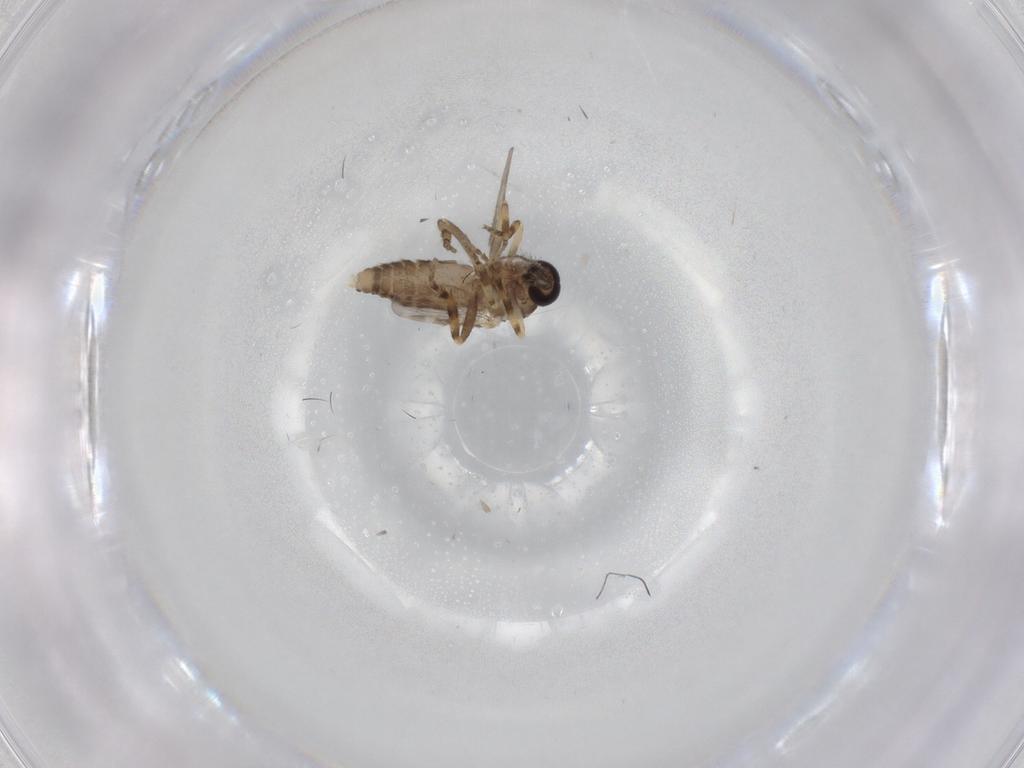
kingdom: Animalia
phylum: Arthropoda
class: Insecta
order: Diptera
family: Ceratopogonidae
